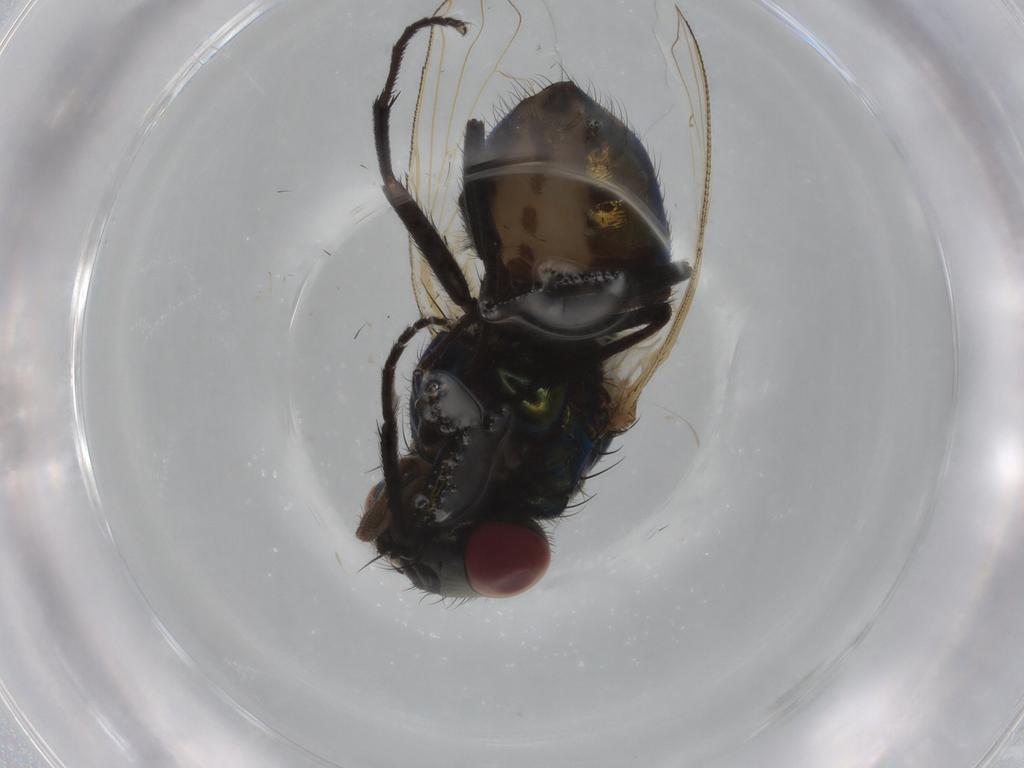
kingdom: Animalia
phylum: Arthropoda
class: Insecta
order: Diptera
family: Muscidae
